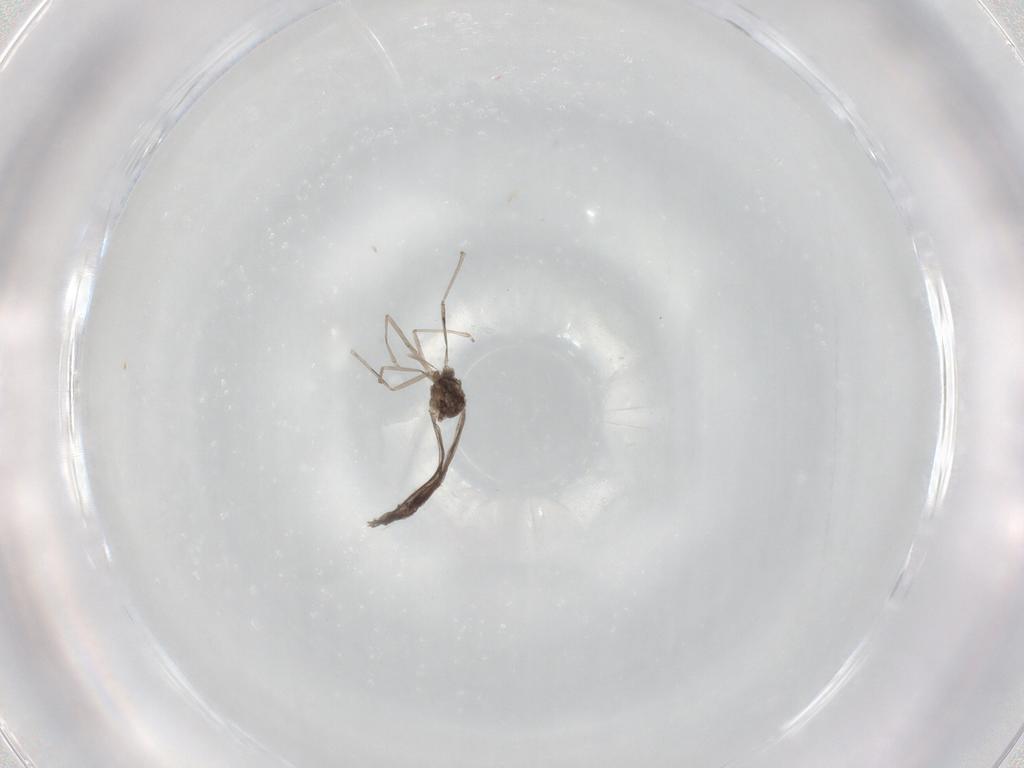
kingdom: Animalia
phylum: Arthropoda
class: Insecta
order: Diptera
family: Cecidomyiidae
